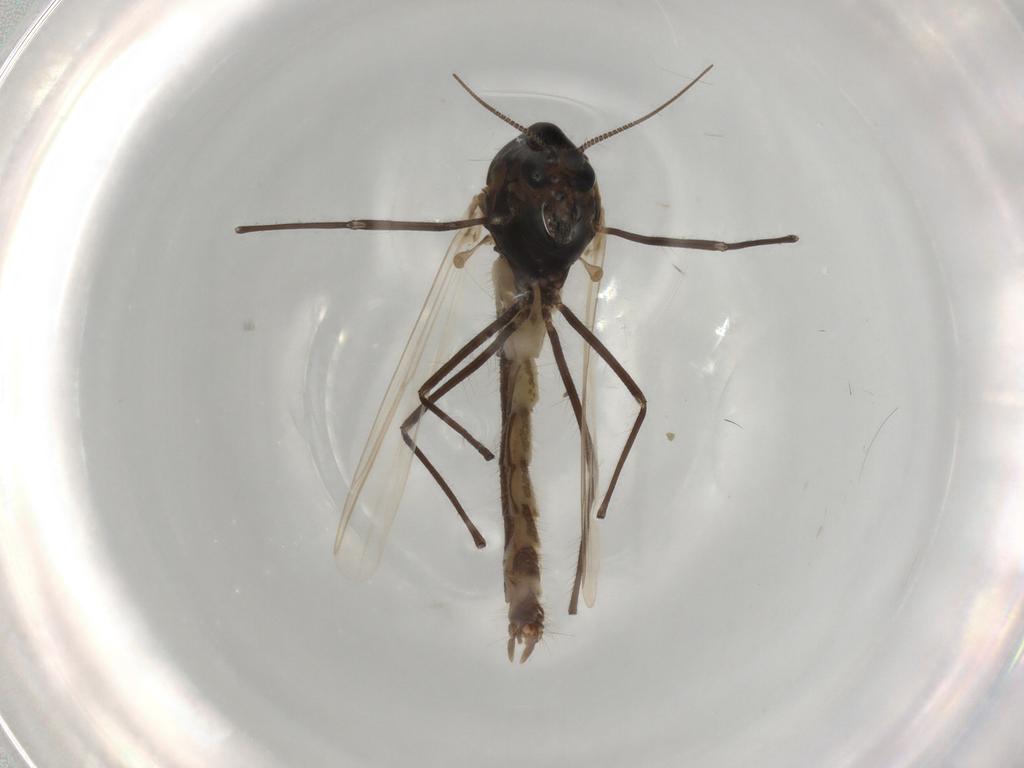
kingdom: Animalia
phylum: Arthropoda
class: Insecta
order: Diptera
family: Chironomidae
